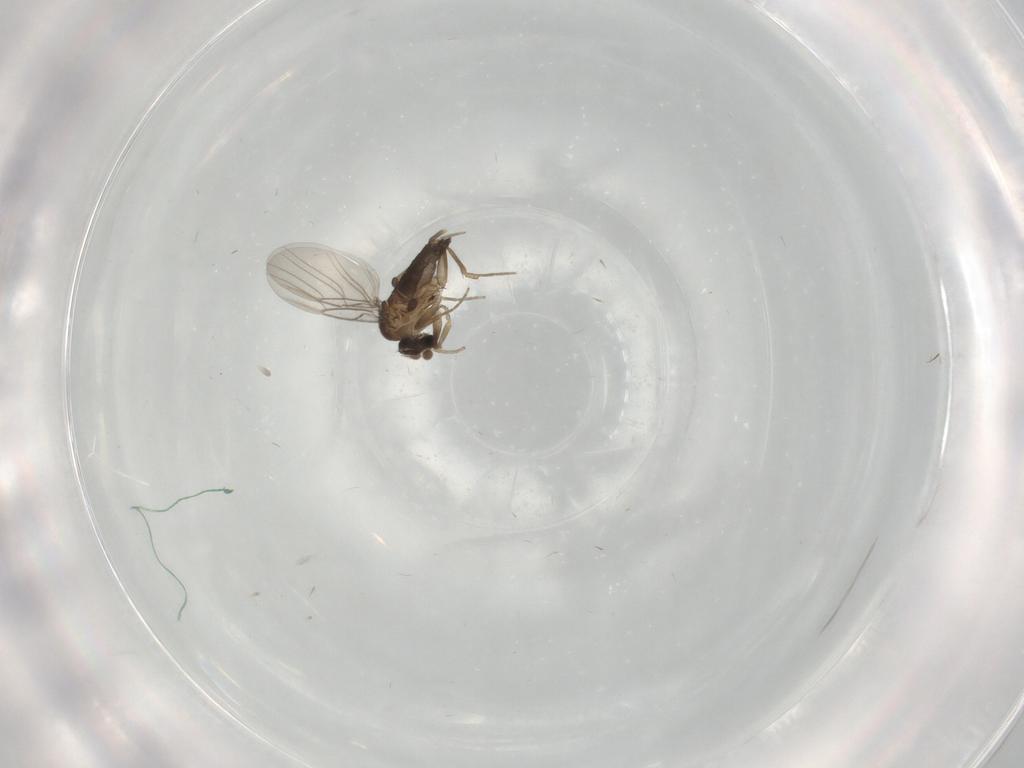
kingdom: Animalia
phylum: Arthropoda
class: Insecta
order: Diptera
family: Phoridae
